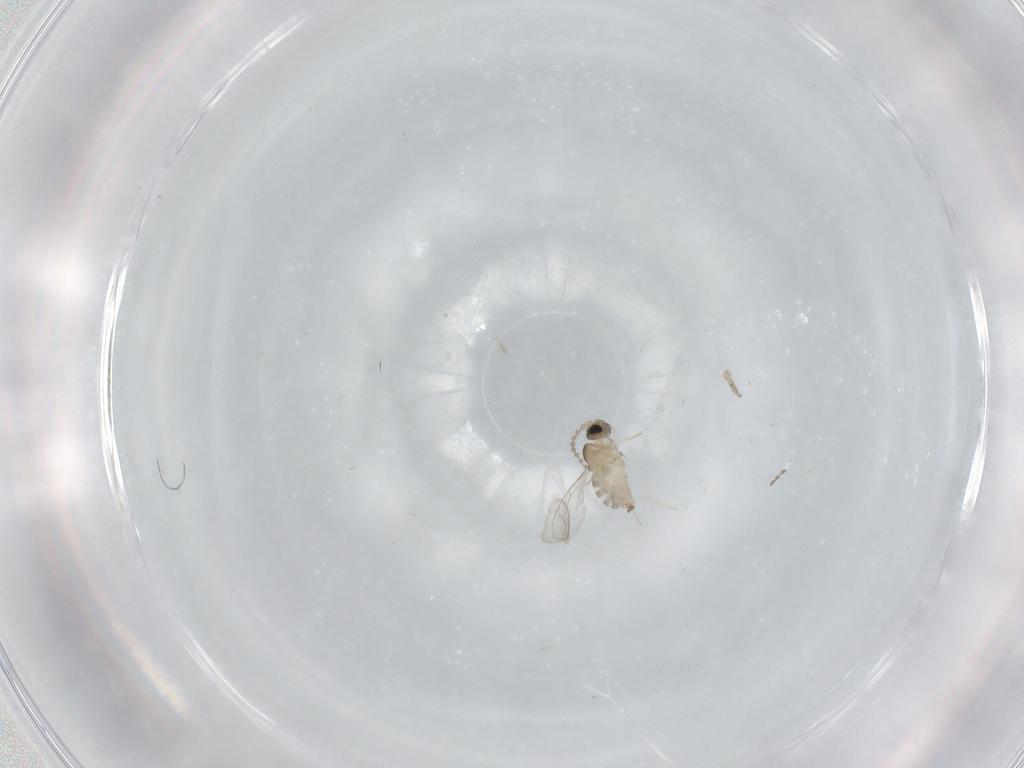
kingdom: Animalia
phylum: Arthropoda
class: Insecta
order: Diptera
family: Cecidomyiidae
